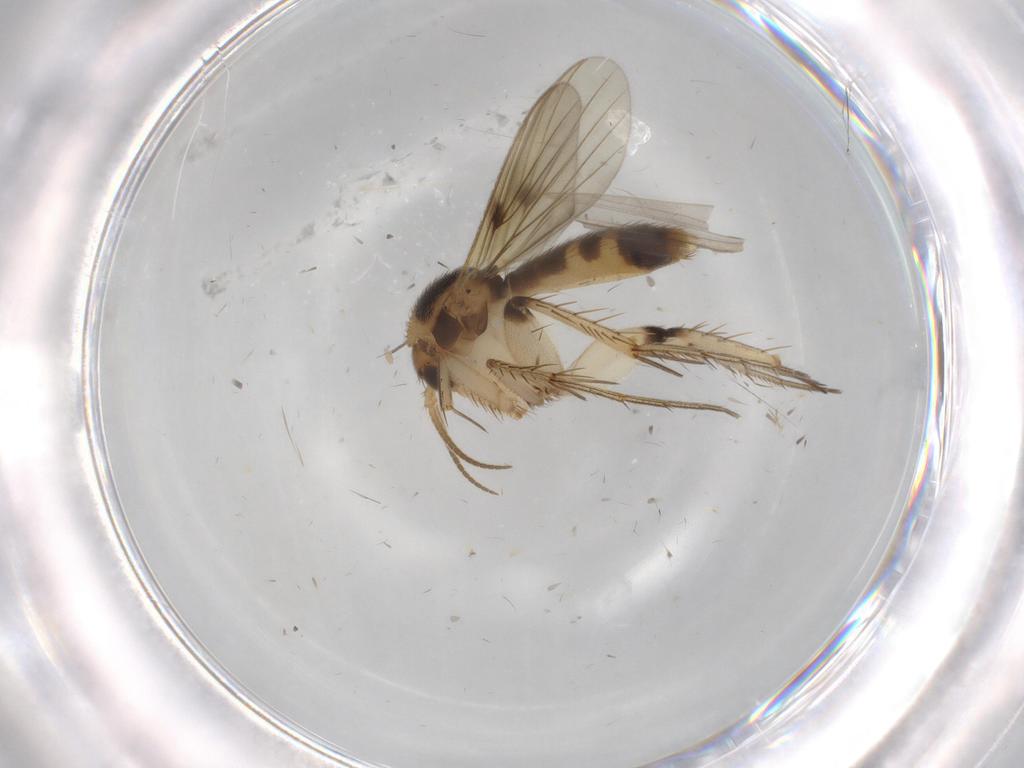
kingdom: Animalia
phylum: Arthropoda
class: Insecta
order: Diptera
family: Mycetophilidae
